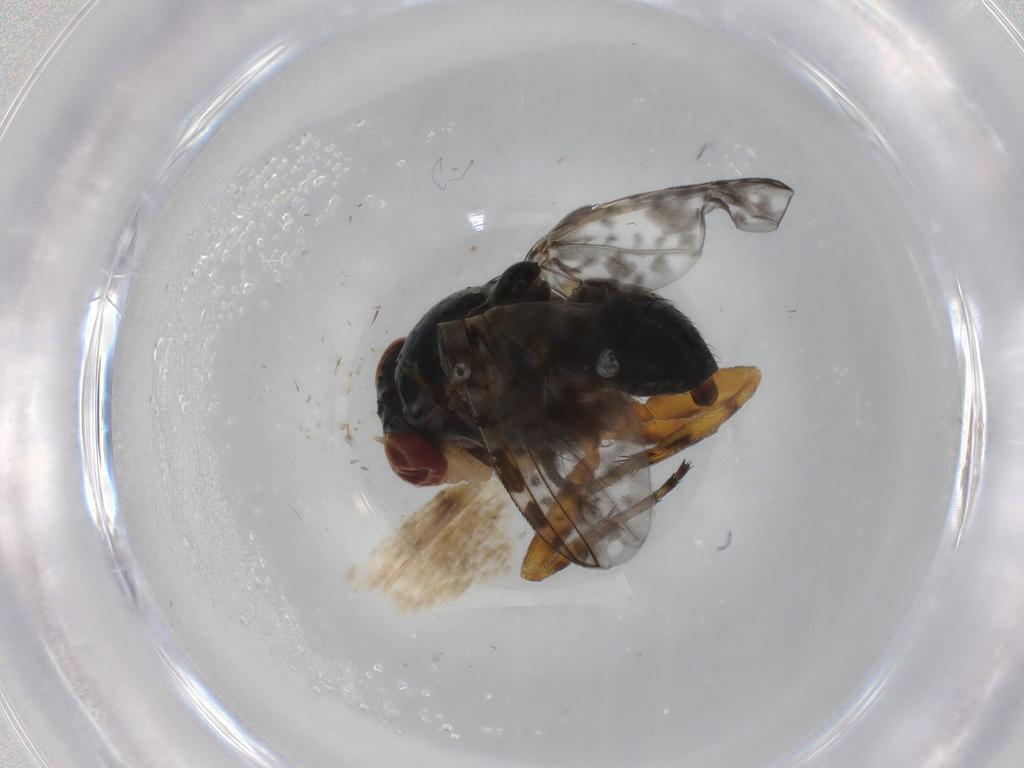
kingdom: Animalia
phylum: Arthropoda
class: Insecta
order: Diptera
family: Odiniidae
